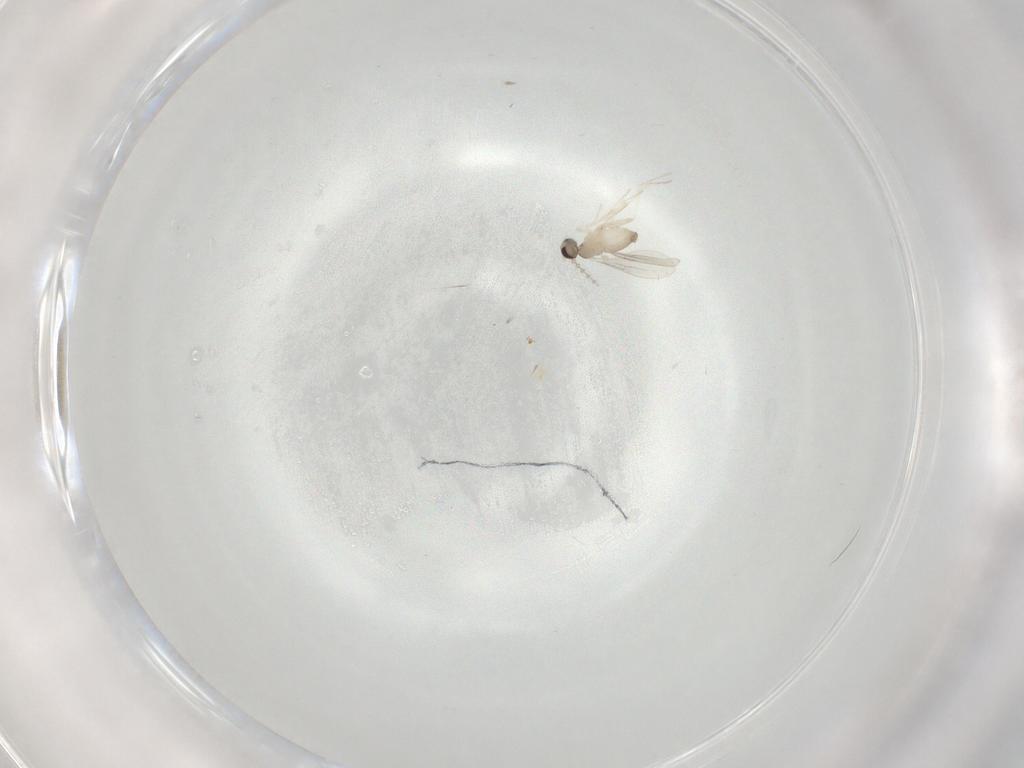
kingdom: Animalia
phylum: Arthropoda
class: Insecta
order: Diptera
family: Cecidomyiidae
